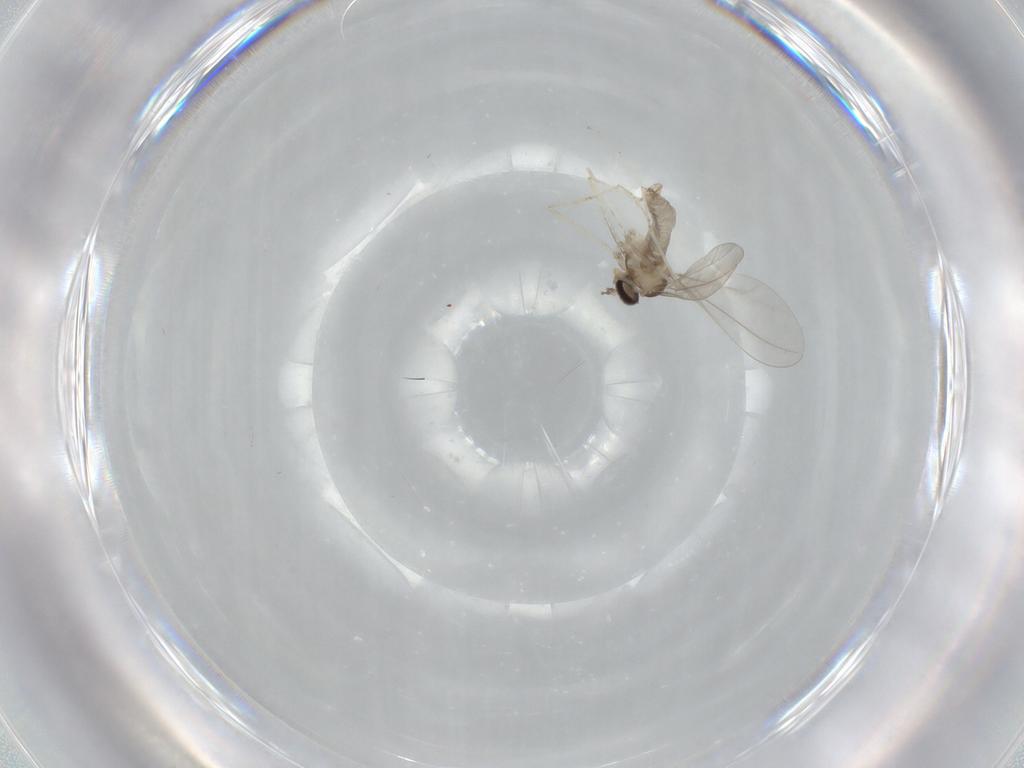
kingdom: Animalia
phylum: Arthropoda
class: Insecta
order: Diptera
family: Cecidomyiidae
